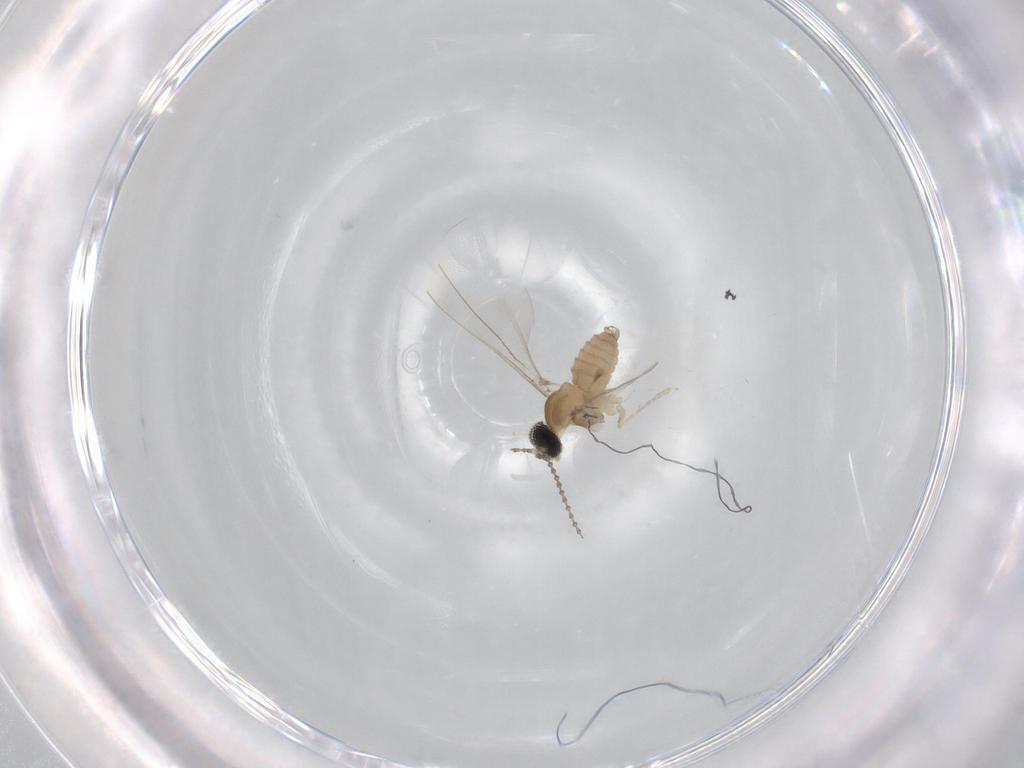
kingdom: Animalia
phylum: Arthropoda
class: Insecta
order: Diptera
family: Cecidomyiidae
